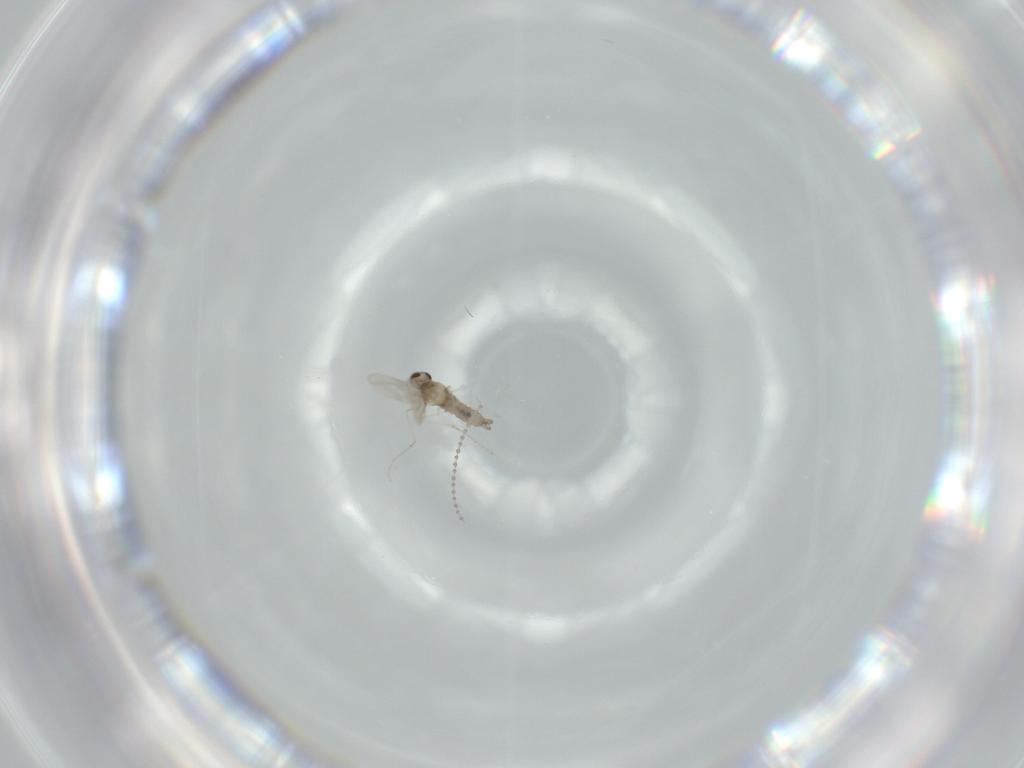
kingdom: Animalia
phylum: Arthropoda
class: Insecta
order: Diptera
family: Cecidomyiidae
